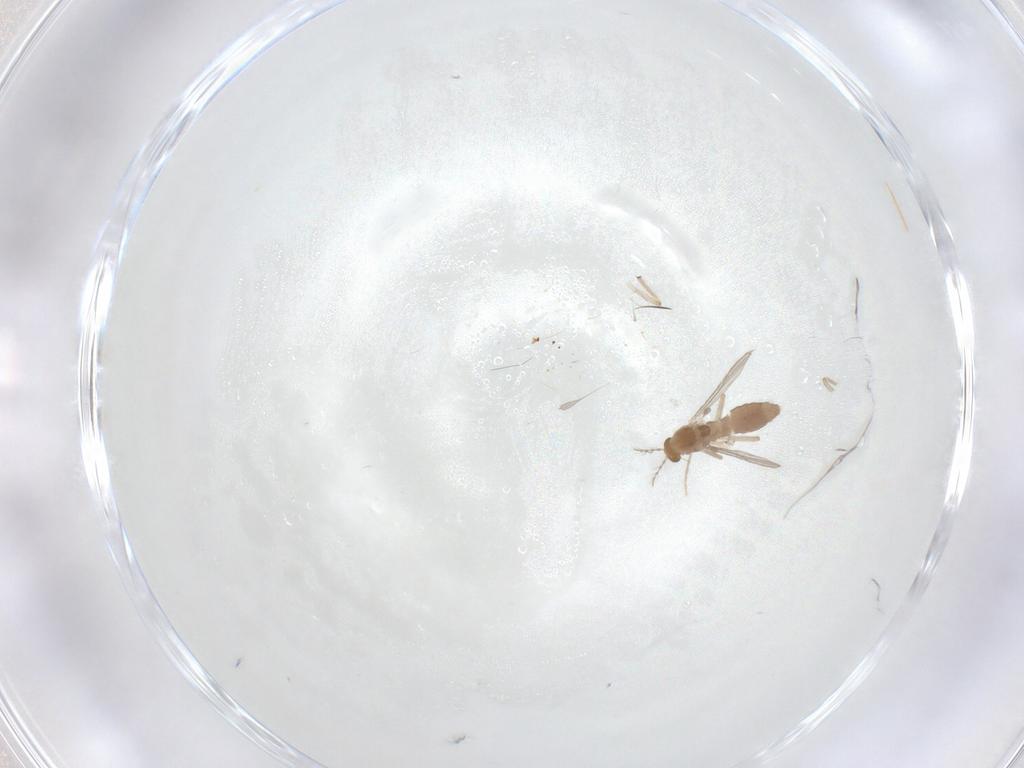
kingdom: Animalia
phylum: Arthropoda
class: Insecta
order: Diptera
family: Chironomidae
